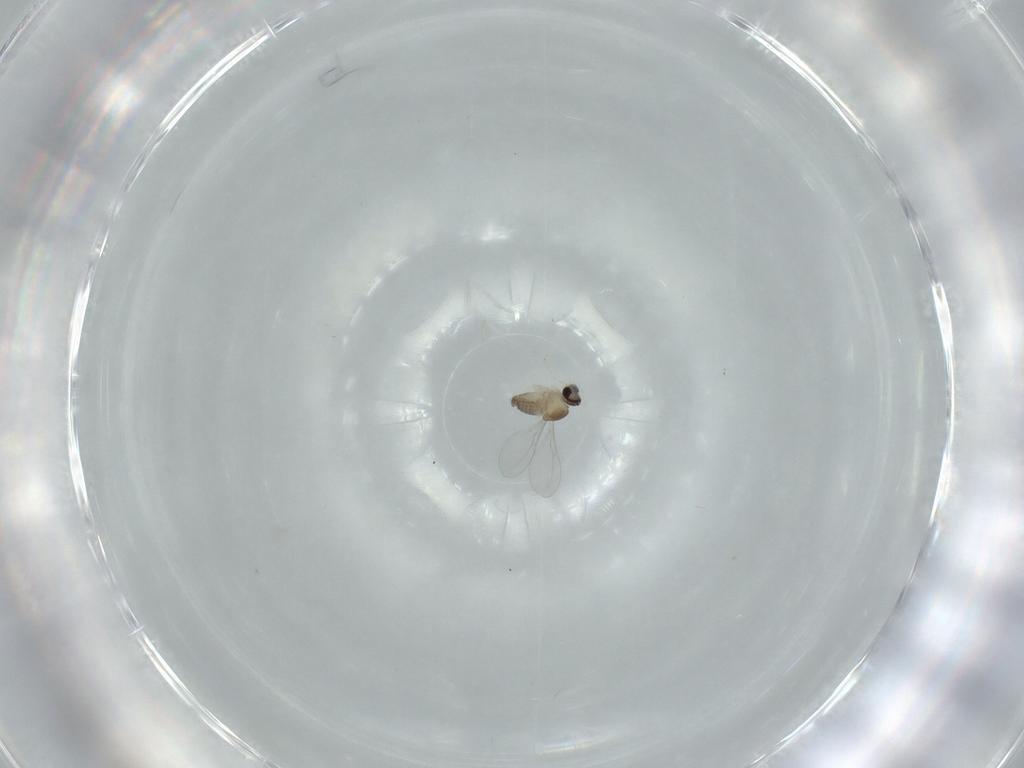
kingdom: Animalia
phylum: Arthropoda
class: Insecta
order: Diptera
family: Cecidomyiidae
